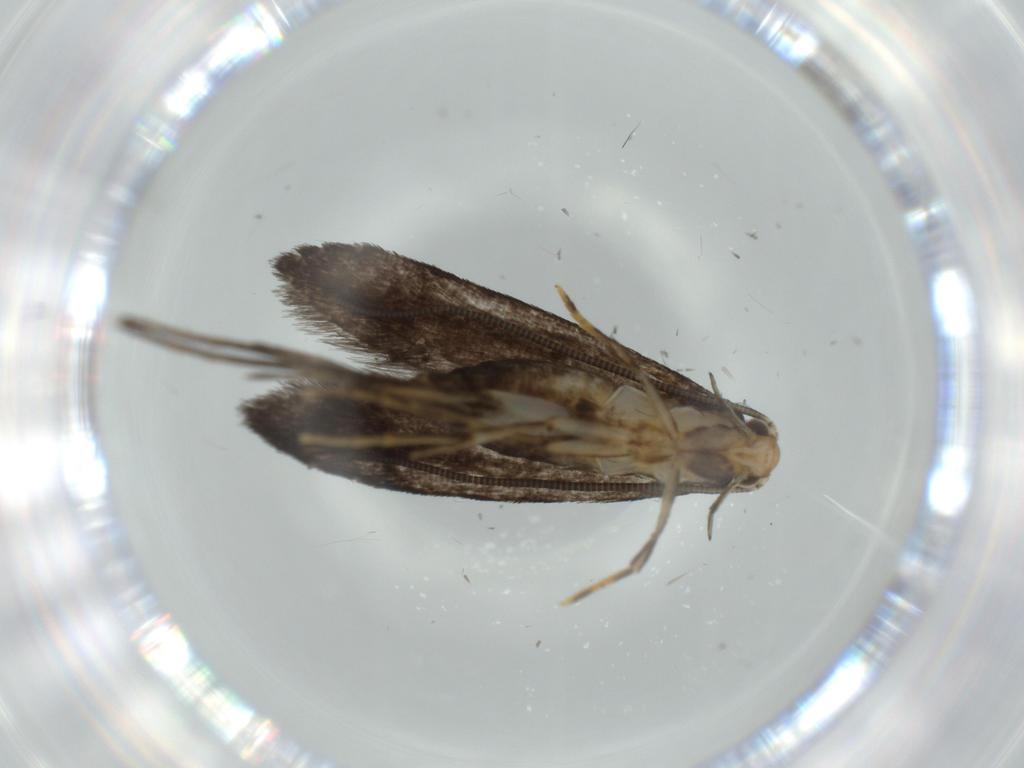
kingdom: Animalia
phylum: Arthropoda
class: Insecta
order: Lepidoptera
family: Tineidae
